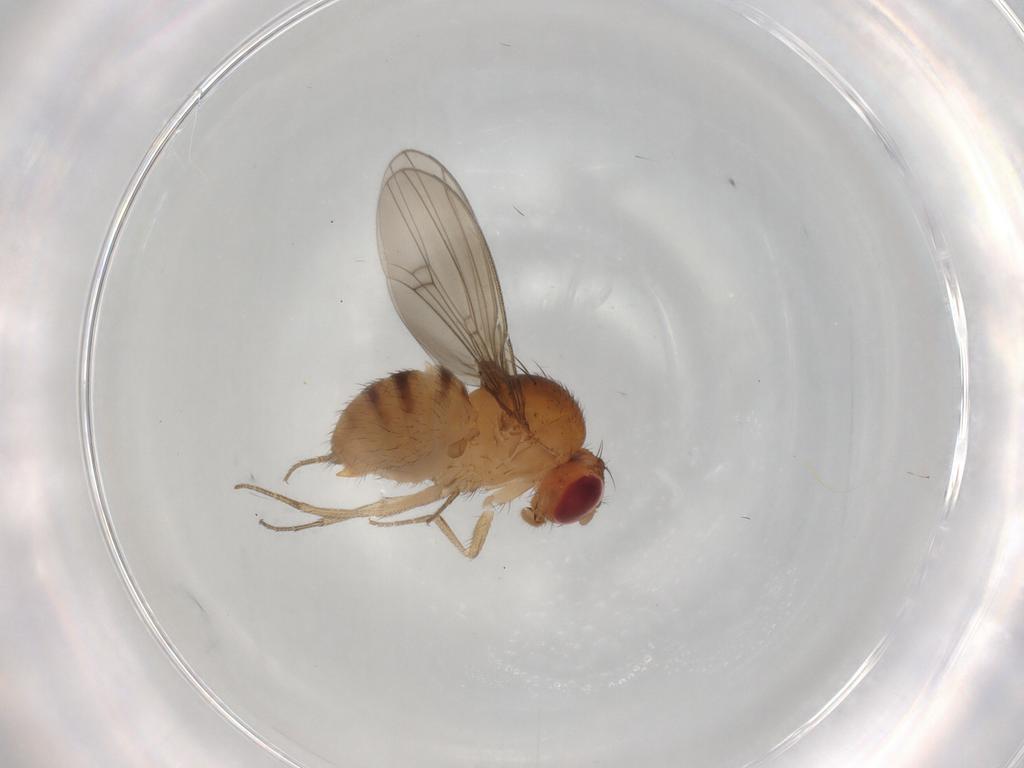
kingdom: Animalia
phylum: Arthropoda
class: Insecta
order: Diptera
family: Drosophilidae
